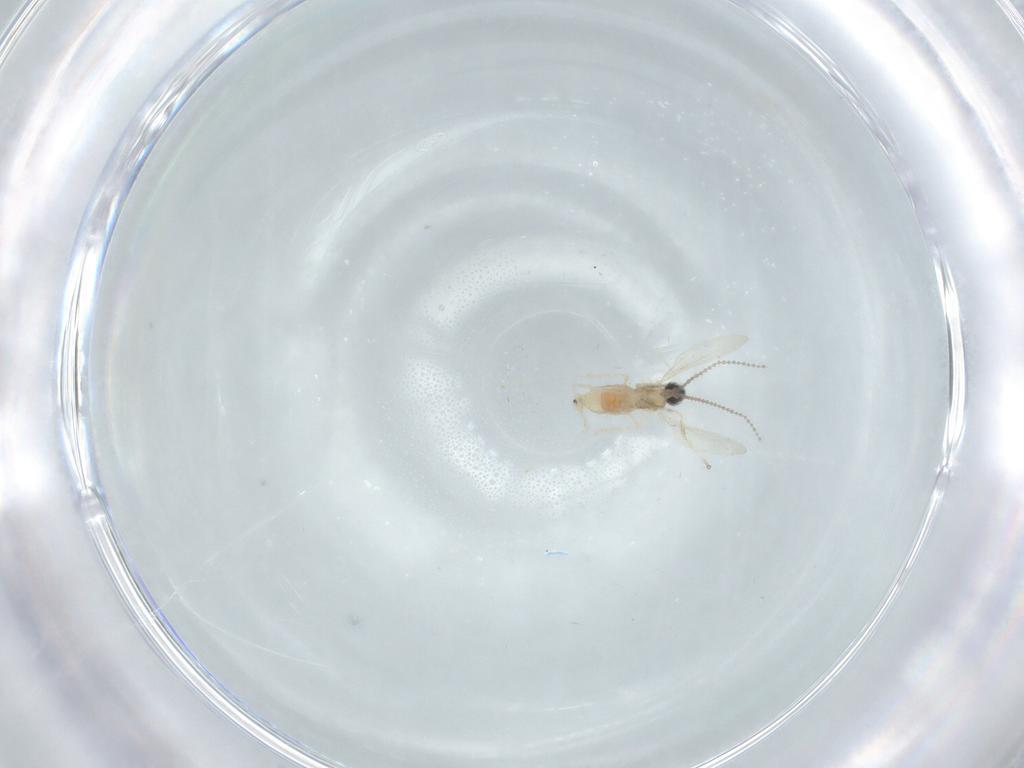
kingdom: Animalia
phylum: Arthropoda
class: Insecta
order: Diptera
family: Cecidomyiidae
